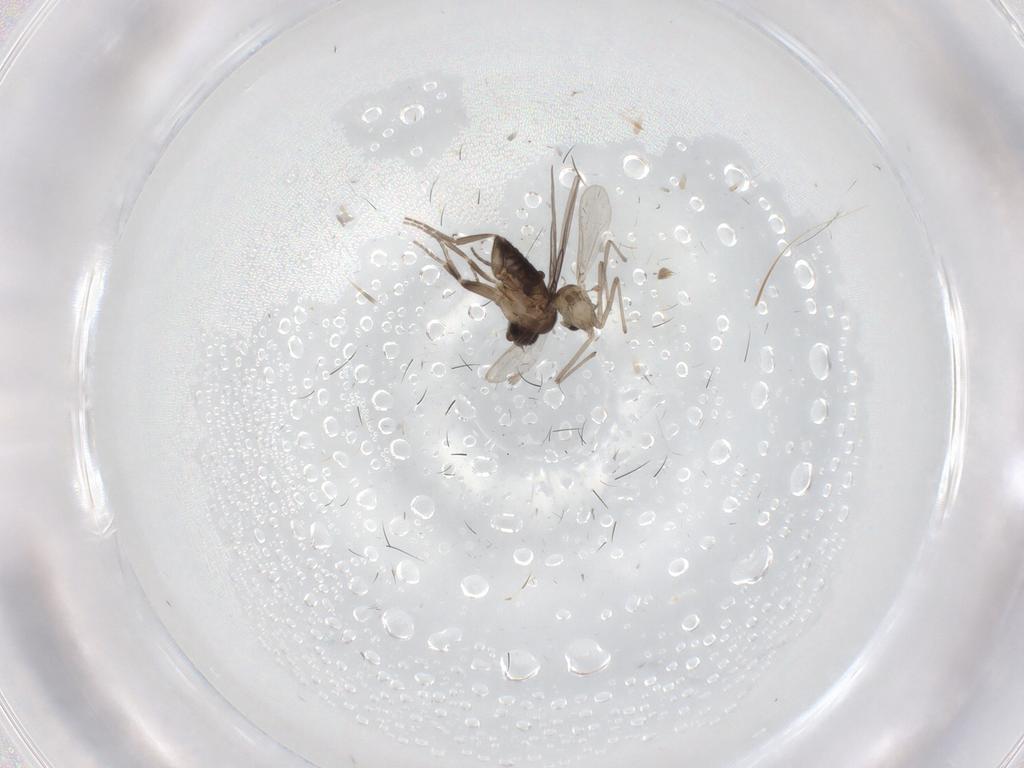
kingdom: Animalia
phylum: Arthropoda
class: Insecta
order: Diptera
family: Chironomidae
